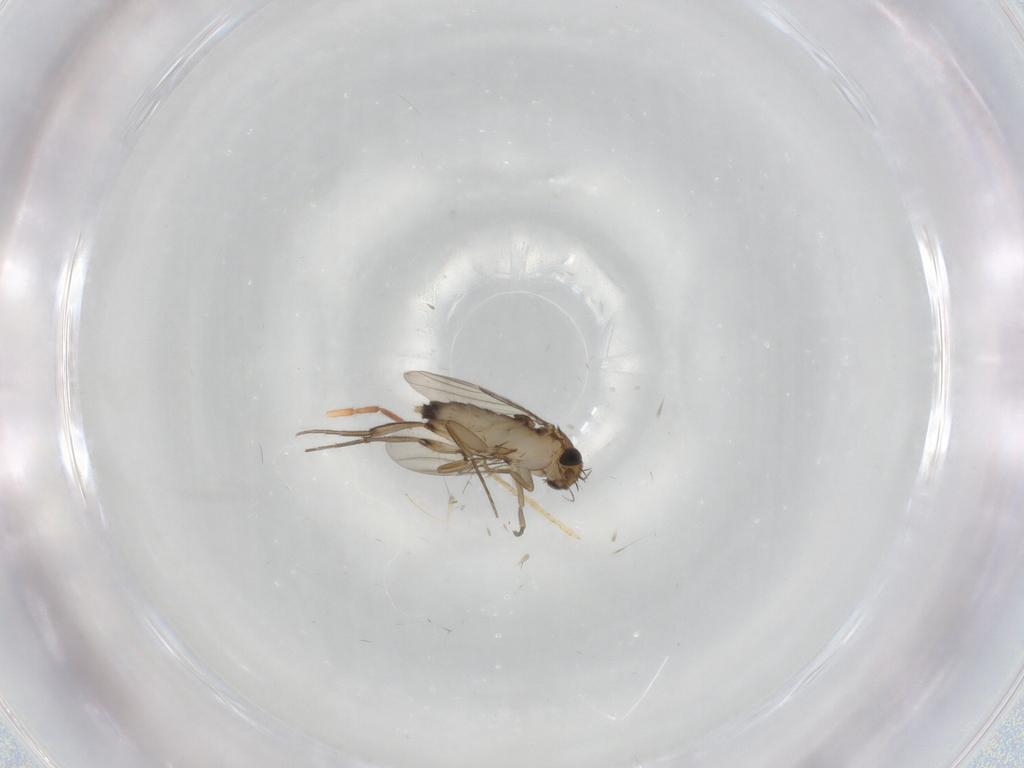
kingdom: Animalia
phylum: Arthropoda
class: Insecta
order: Diptera
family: Phoridae
